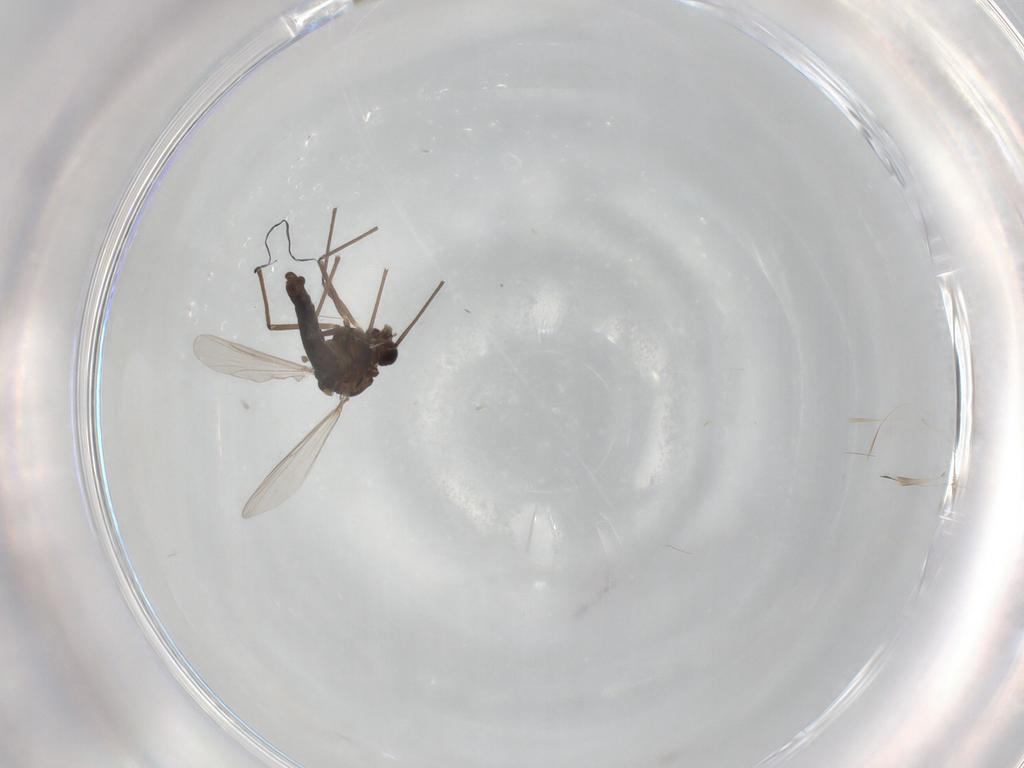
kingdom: Animalia
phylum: Arthropoda
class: Insecta
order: Diptera
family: Chironomidae
